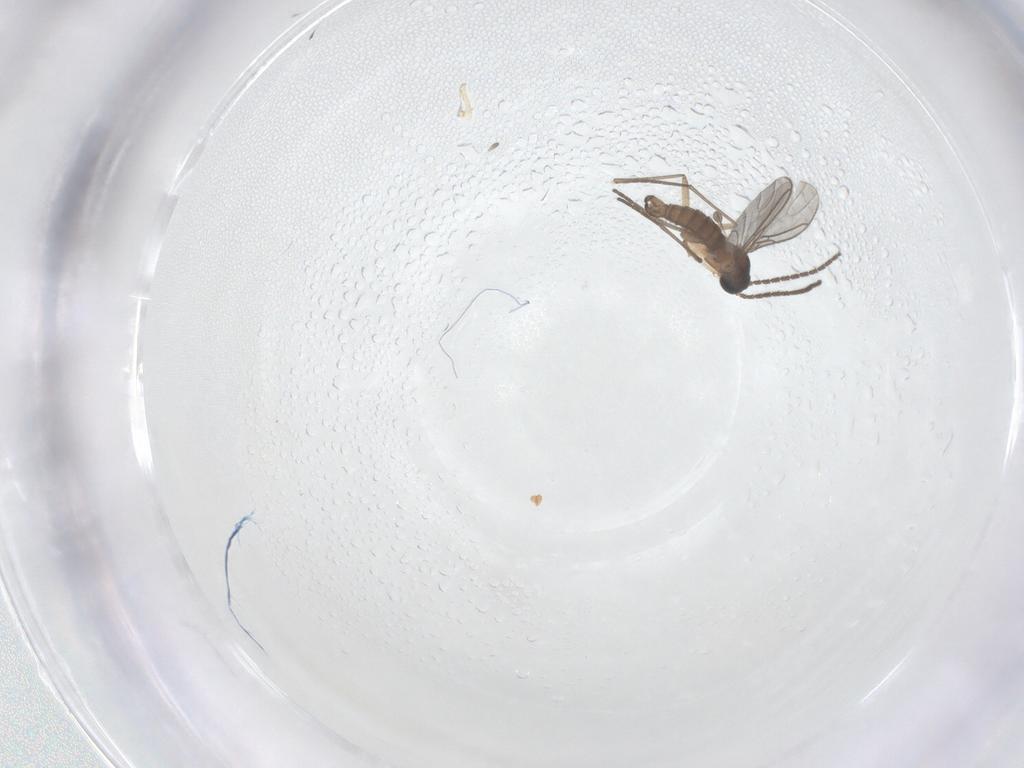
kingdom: Animalia
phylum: Arthropoda
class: Insecta
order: Diptera
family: Sciaridae
